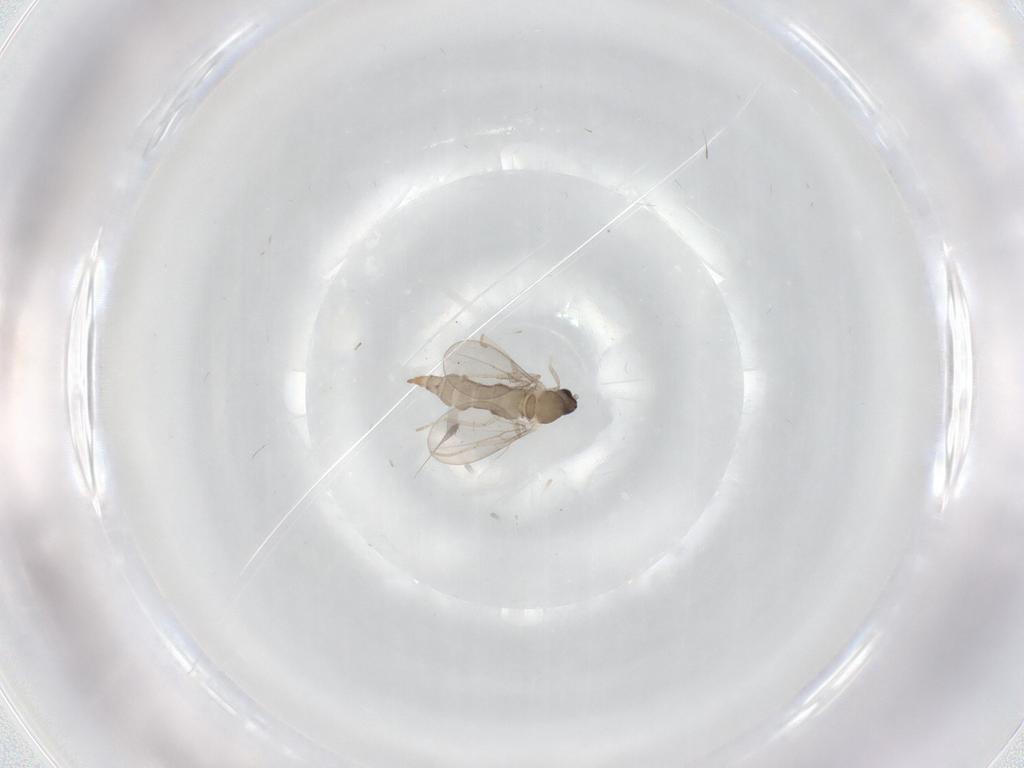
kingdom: Animalia
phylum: Arthropoda
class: Insecta
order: Diptera
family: Cecidomyiidae
